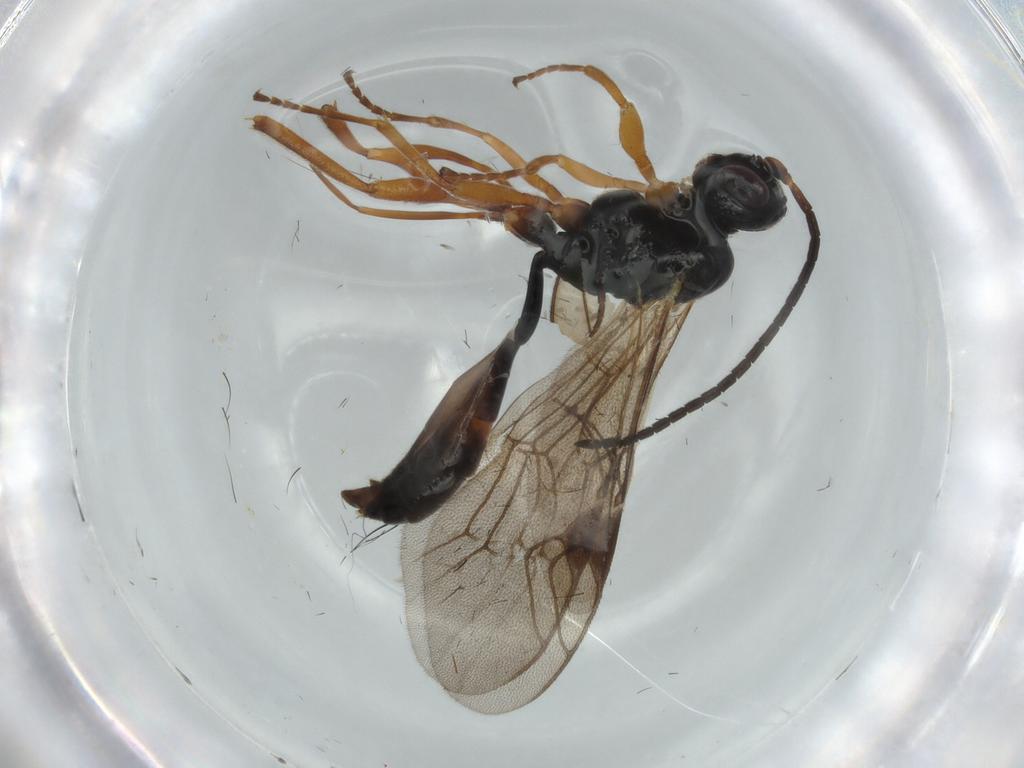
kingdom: Animalia
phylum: Arthropoda
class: Insecta
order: Hymenoptera
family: Ichneumonidae
